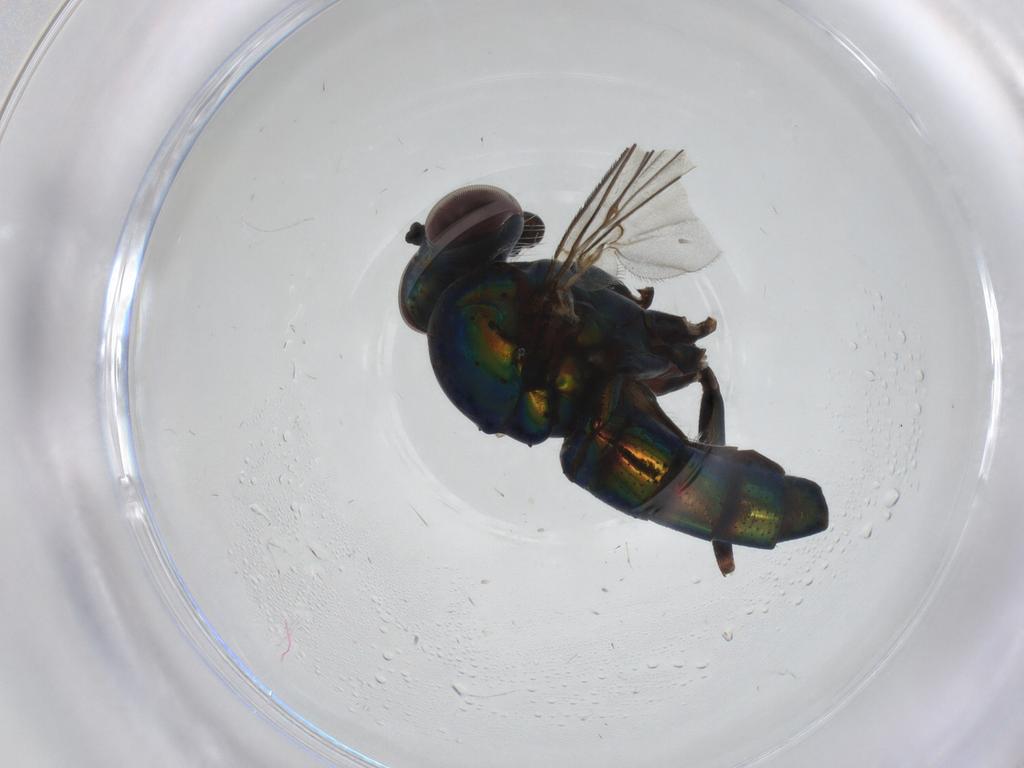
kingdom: Animalia
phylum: Arthropoda
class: Insecta
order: Diptera
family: Dolichopodidae
